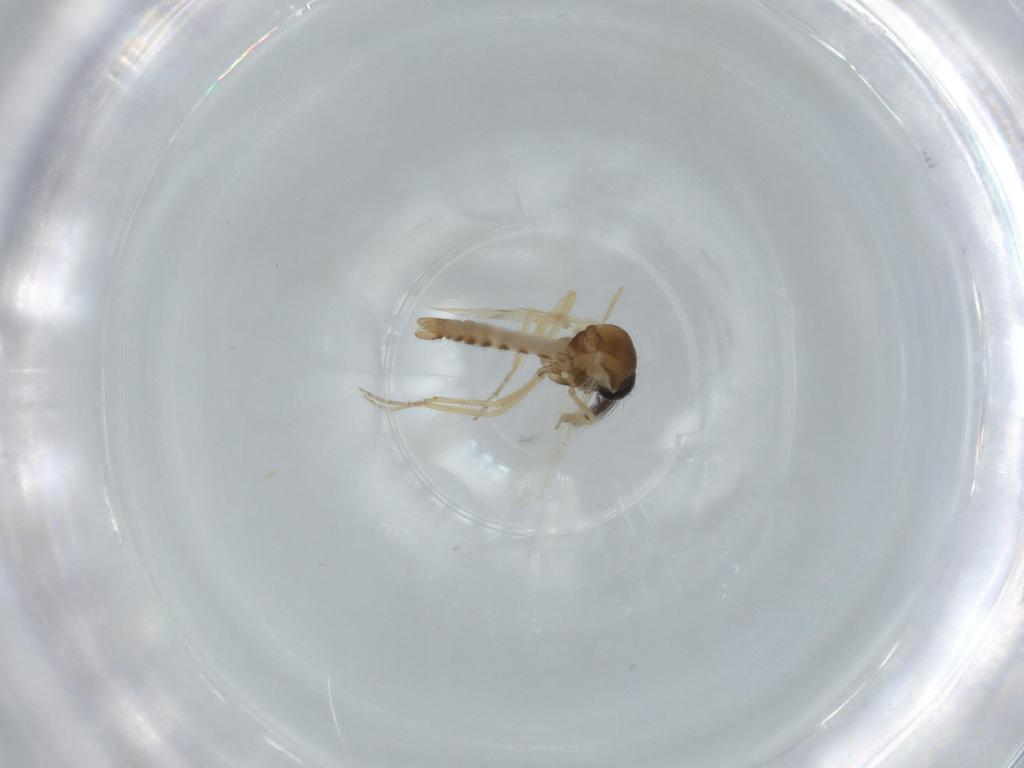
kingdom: Animalia
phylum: Arthropoda
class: Insecta
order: Diptera
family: Ceratopogonidae
